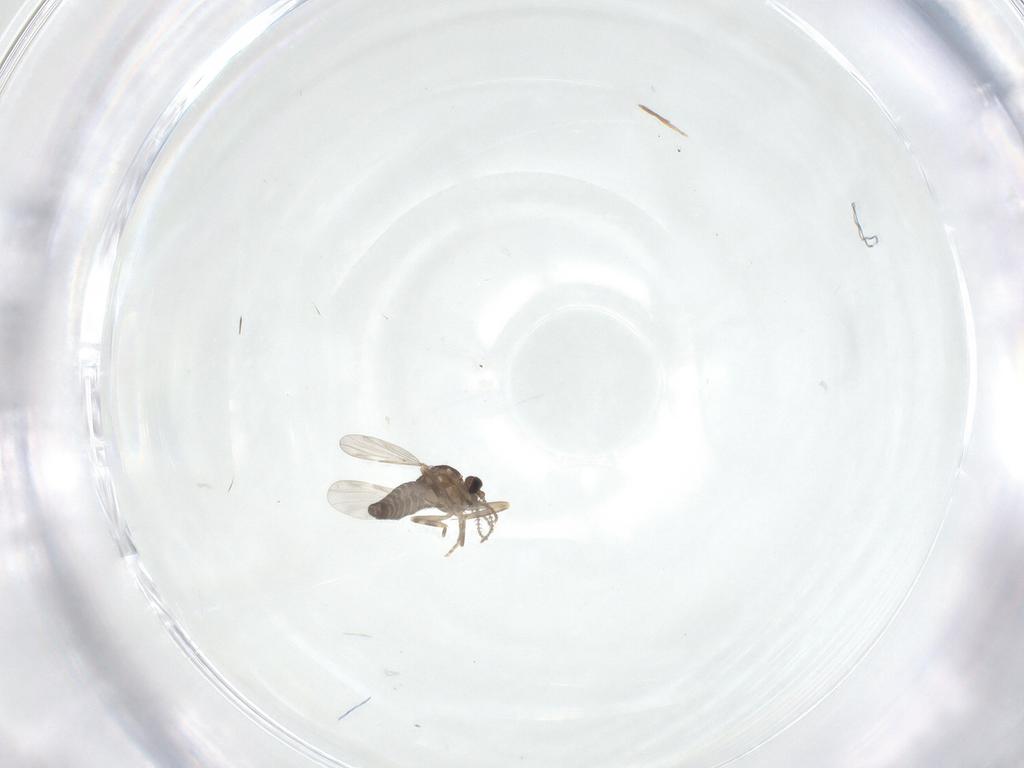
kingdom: Animalia
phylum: Arthropoda
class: Insecta
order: Diptera
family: Ceratopogonidae
